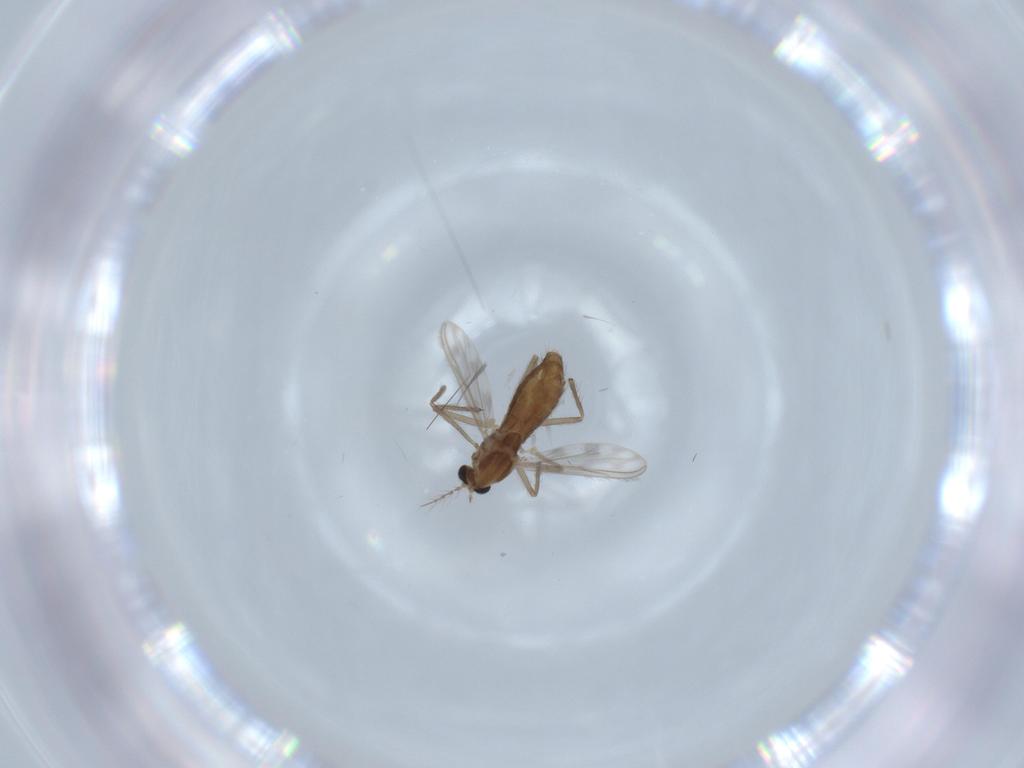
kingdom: Animalia
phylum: Arthropoda
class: Insecta
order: Diptera
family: Chironomidae
